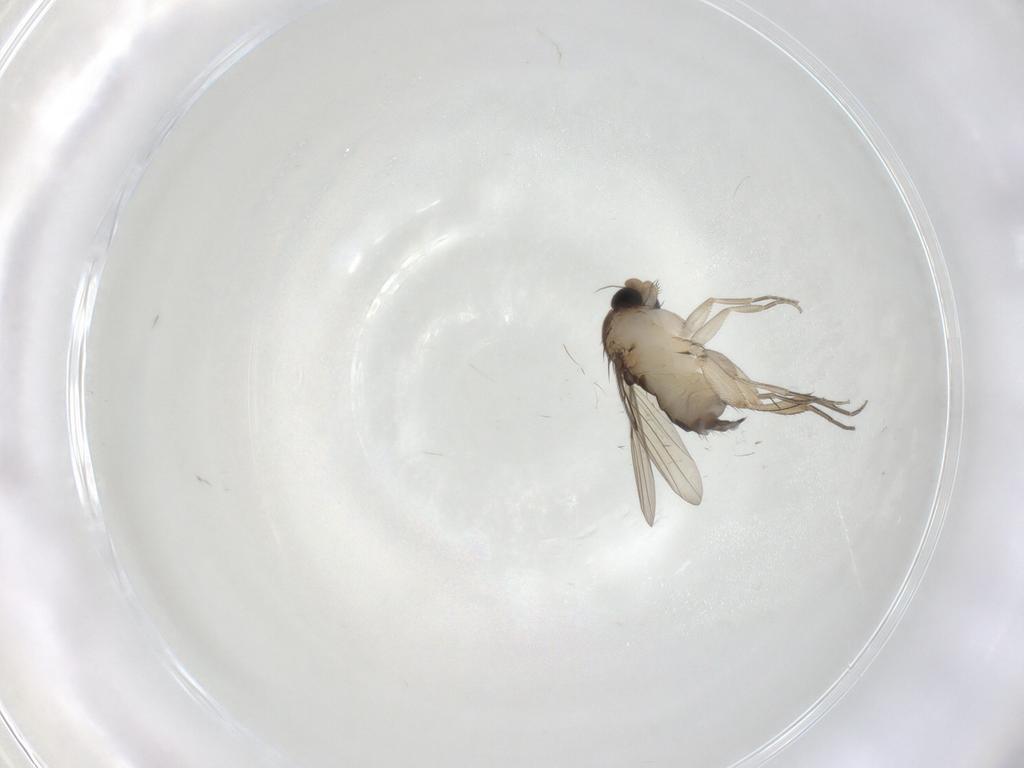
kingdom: Animalia
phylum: Arthropoda
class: Insecta
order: Diptera
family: Phoridae
